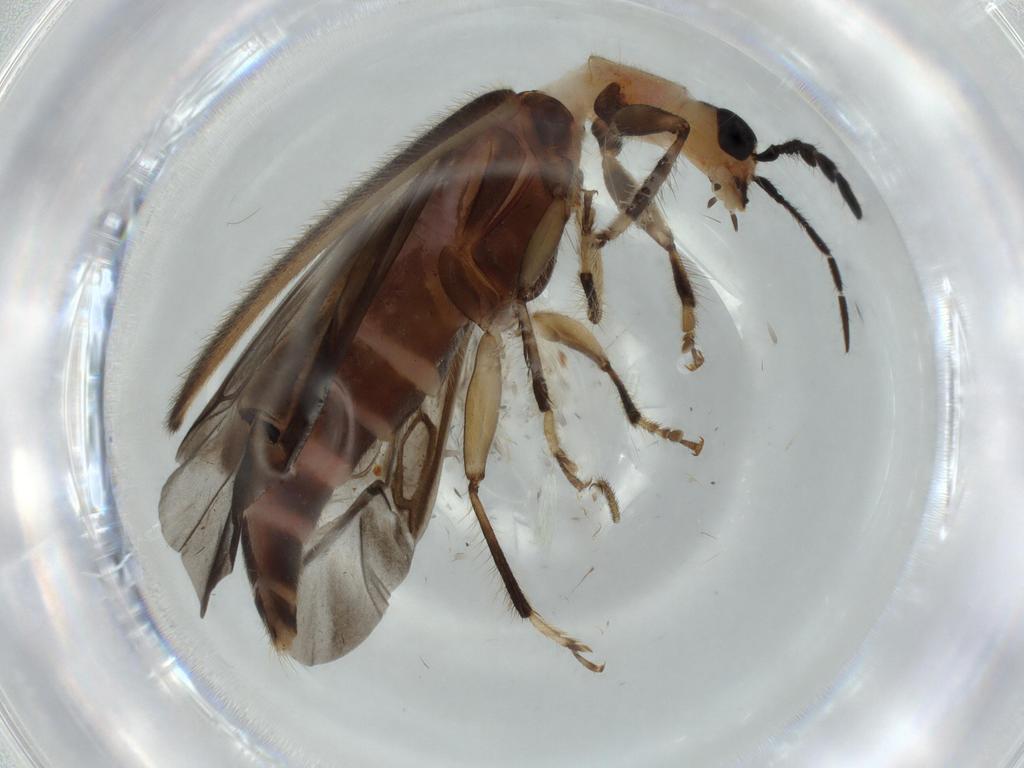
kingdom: Animalia
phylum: Arthropoda
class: Insecta
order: Coleoptera
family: Cleridae
